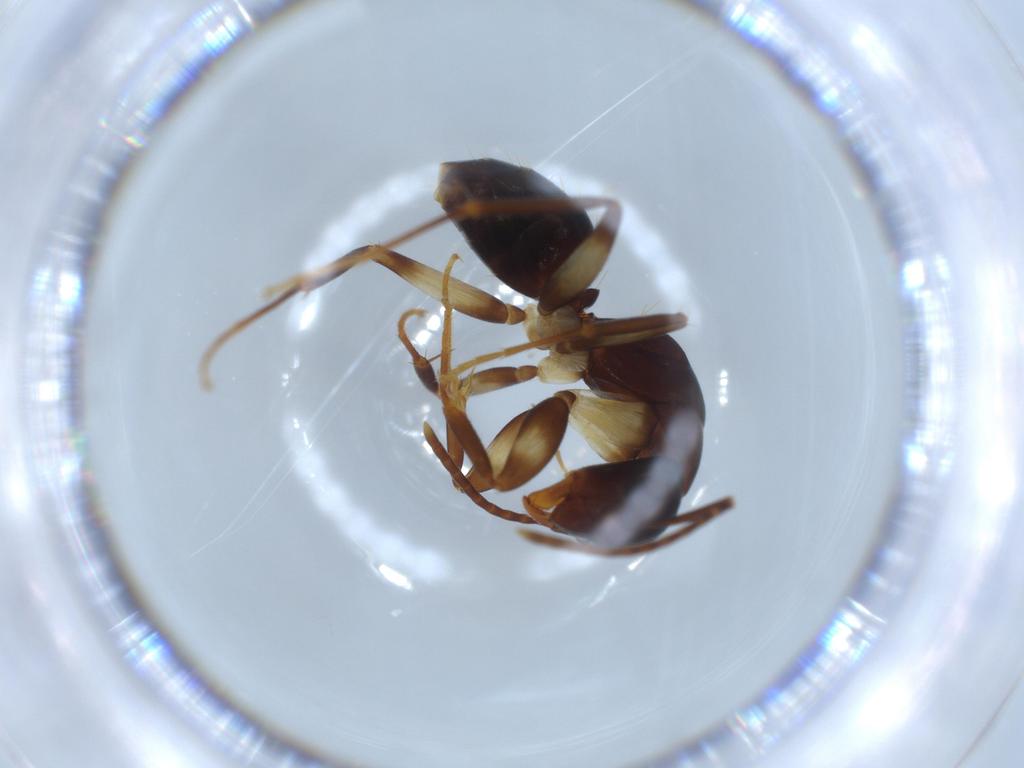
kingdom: Animalia
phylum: Arthropoda
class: Insecta
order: Hymenoptera
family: Formicidae
